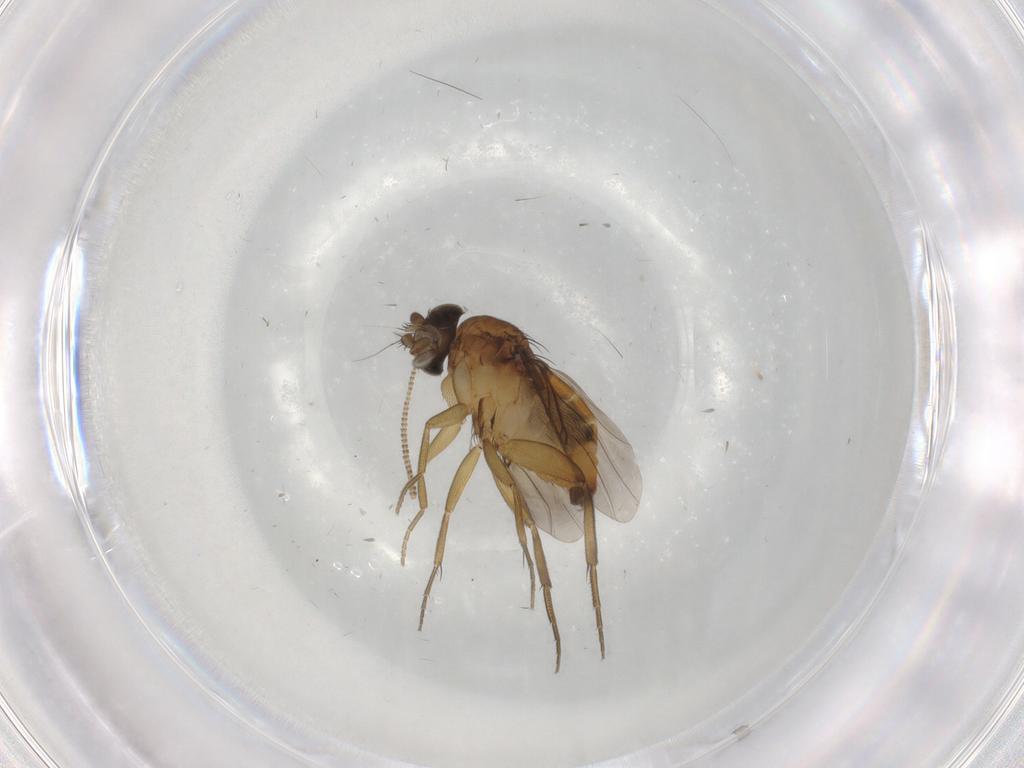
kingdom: Animalia
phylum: Arthropoda
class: Insecta
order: Diptera
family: Phoridae
